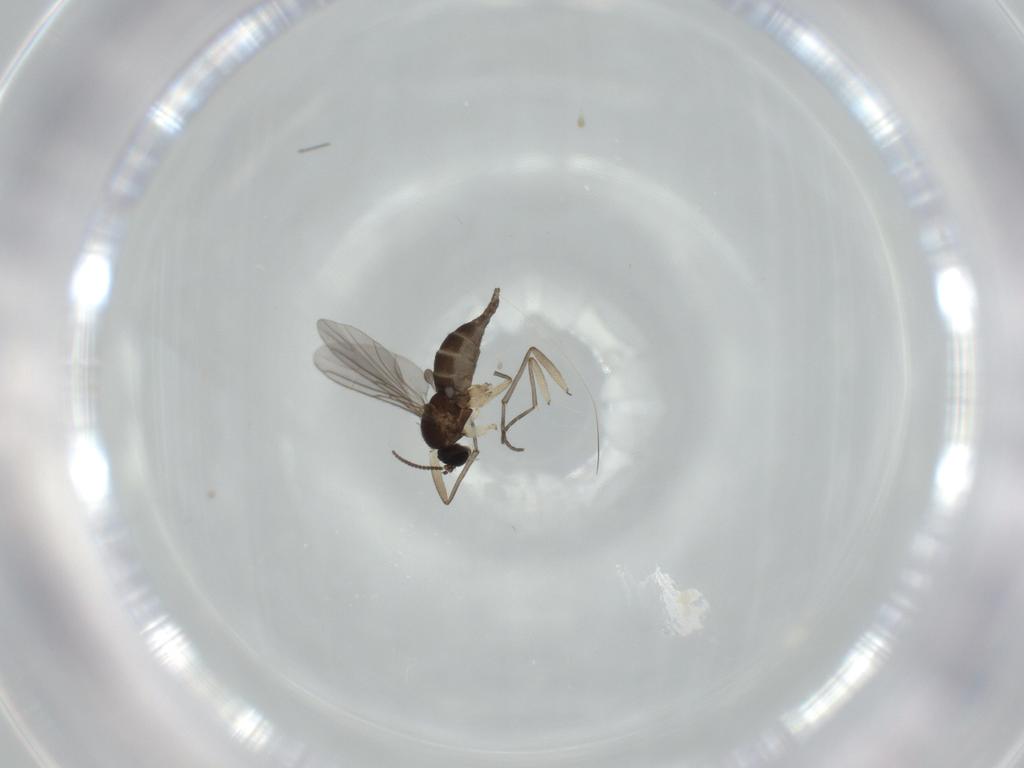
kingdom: Animalia
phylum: Arthropoda
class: Insecta
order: Diptera
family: Sciaridae
